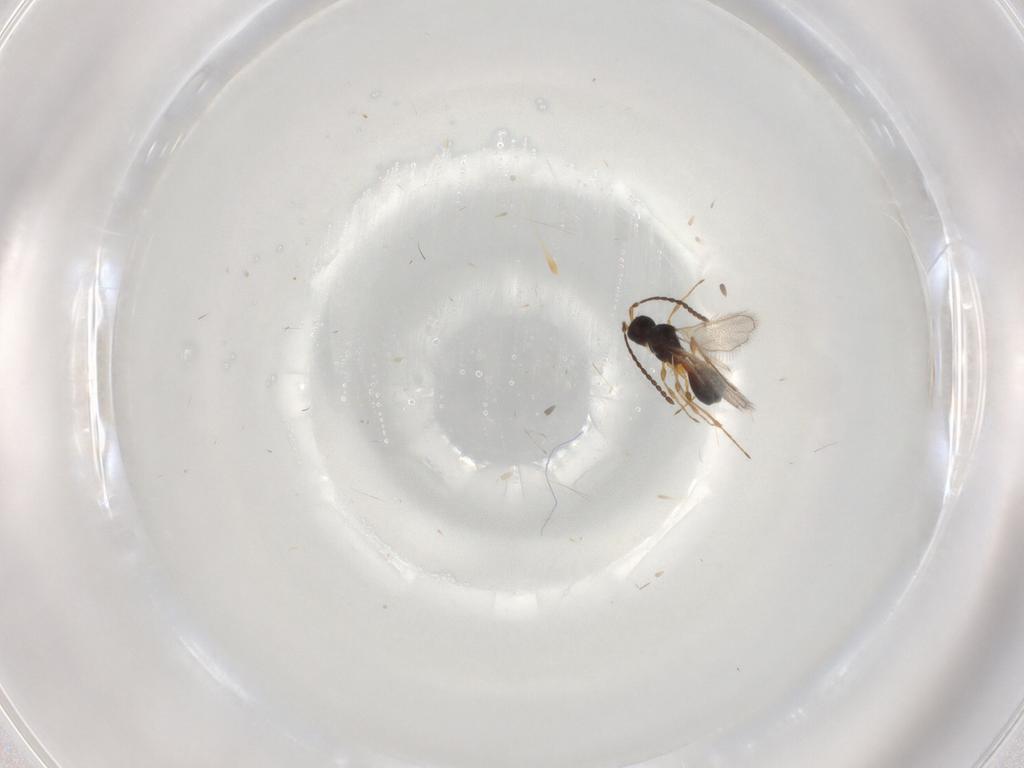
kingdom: Animalia
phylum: Arthropoda
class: Insecta
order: Hymenoptera
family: Diapriidae
